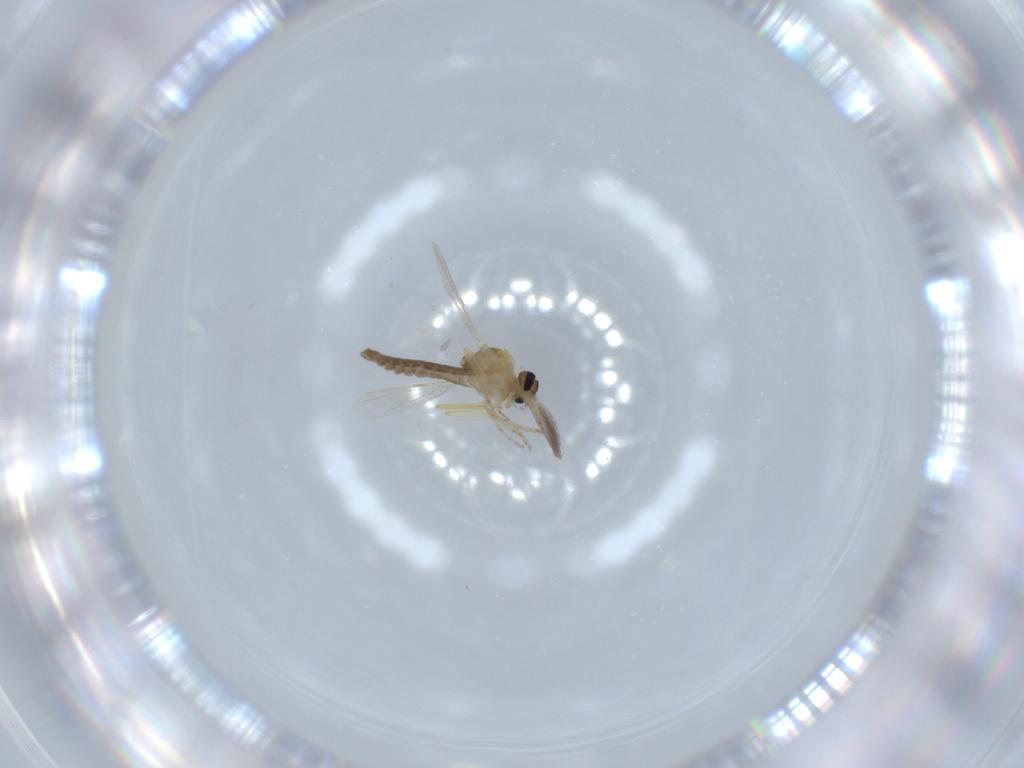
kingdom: Animalia
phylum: Arthropoda
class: Insecta
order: Diptera
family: Ceratopogonidae
